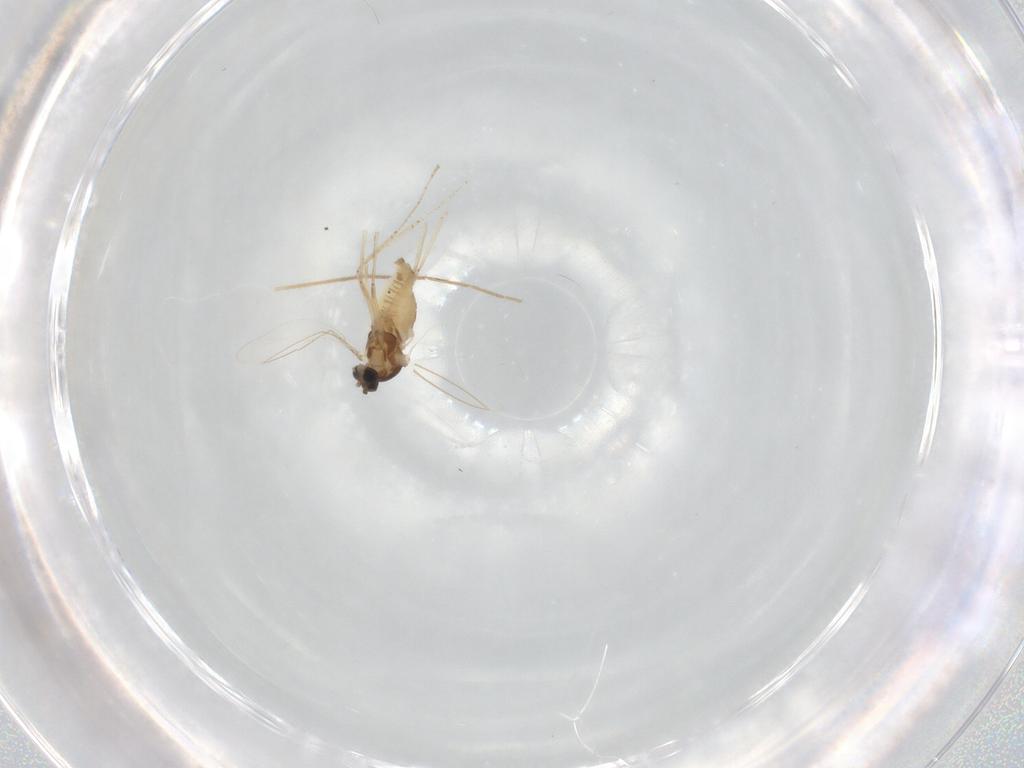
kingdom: Animalia
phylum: Arthropoda
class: Insecta
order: Diptera
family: Cecidomyiidae
